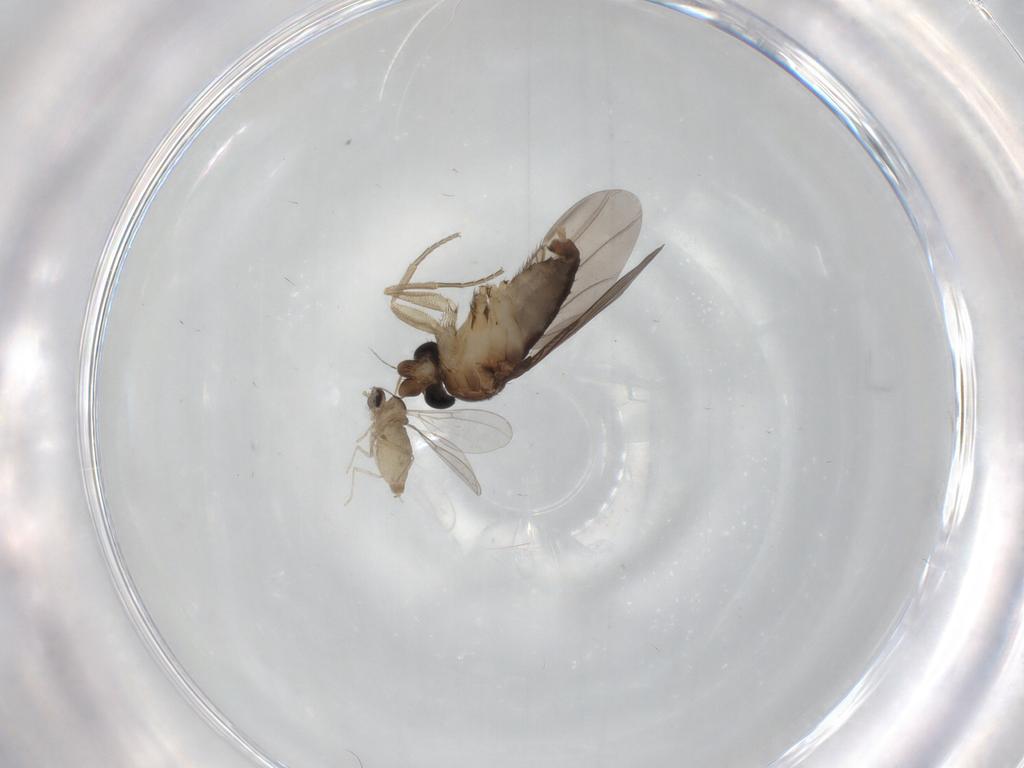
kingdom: Animalia
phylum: Arthropoda
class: Insecta
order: Diptera
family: Cecidomyiidae
